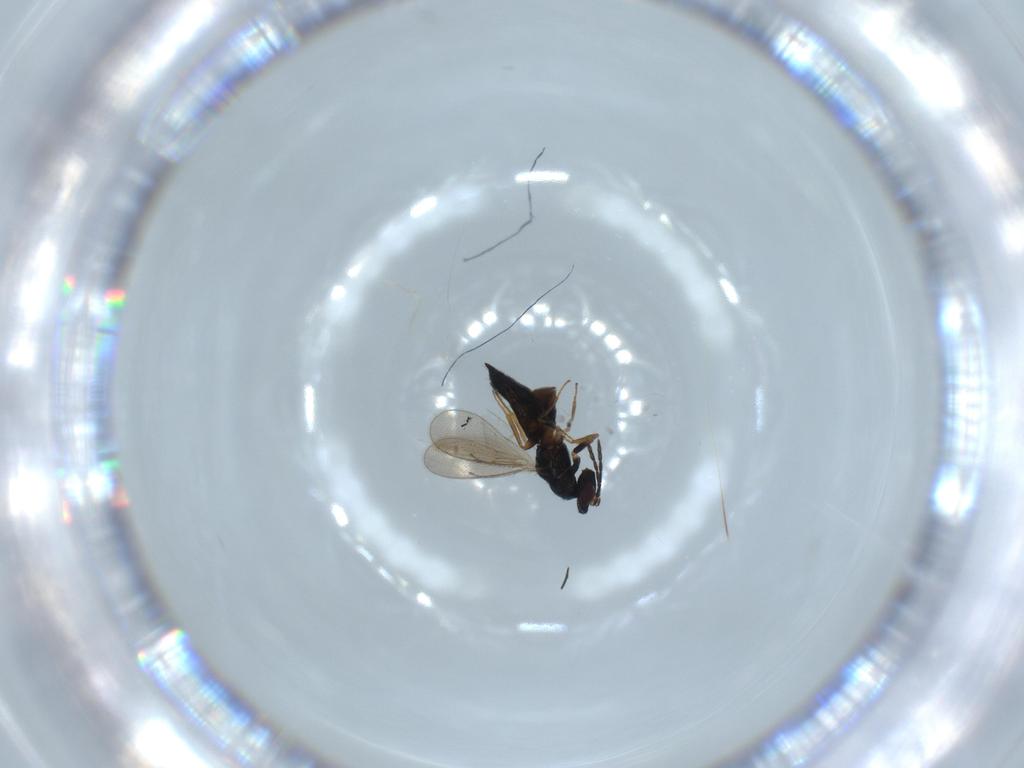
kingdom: Animalia
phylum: Arthropoda
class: Insecta
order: Hymenoptera
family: Eulophidae
